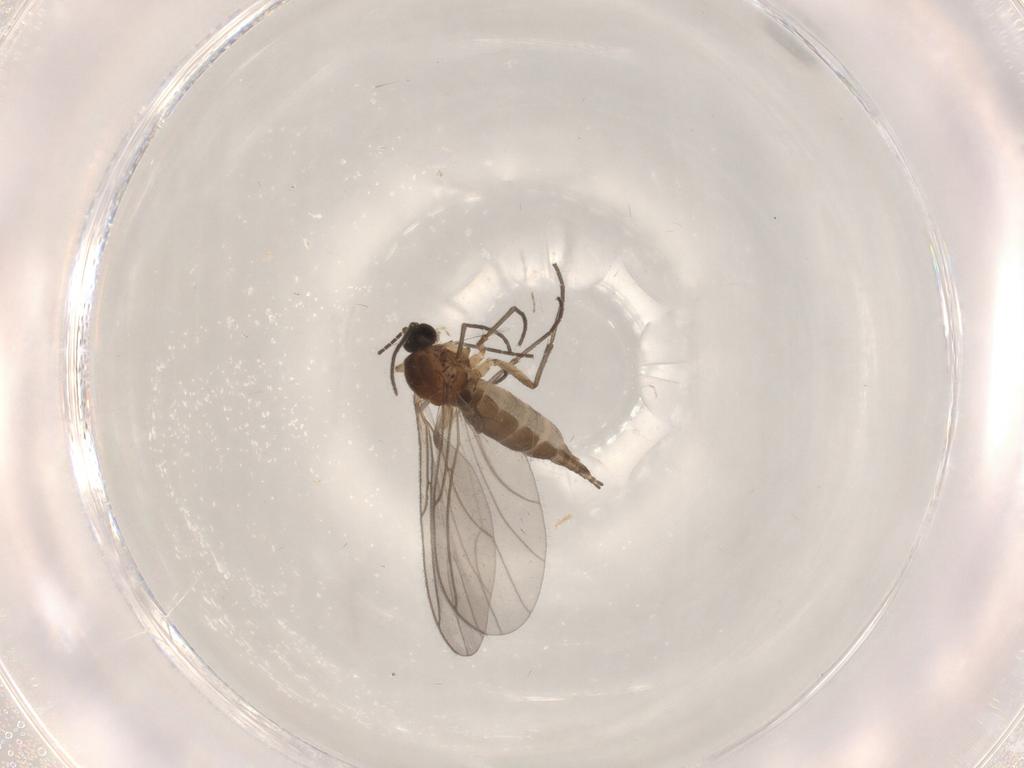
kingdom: Animalia
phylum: Arthropoda
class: Insecta
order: Diptera
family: Sciaridae
